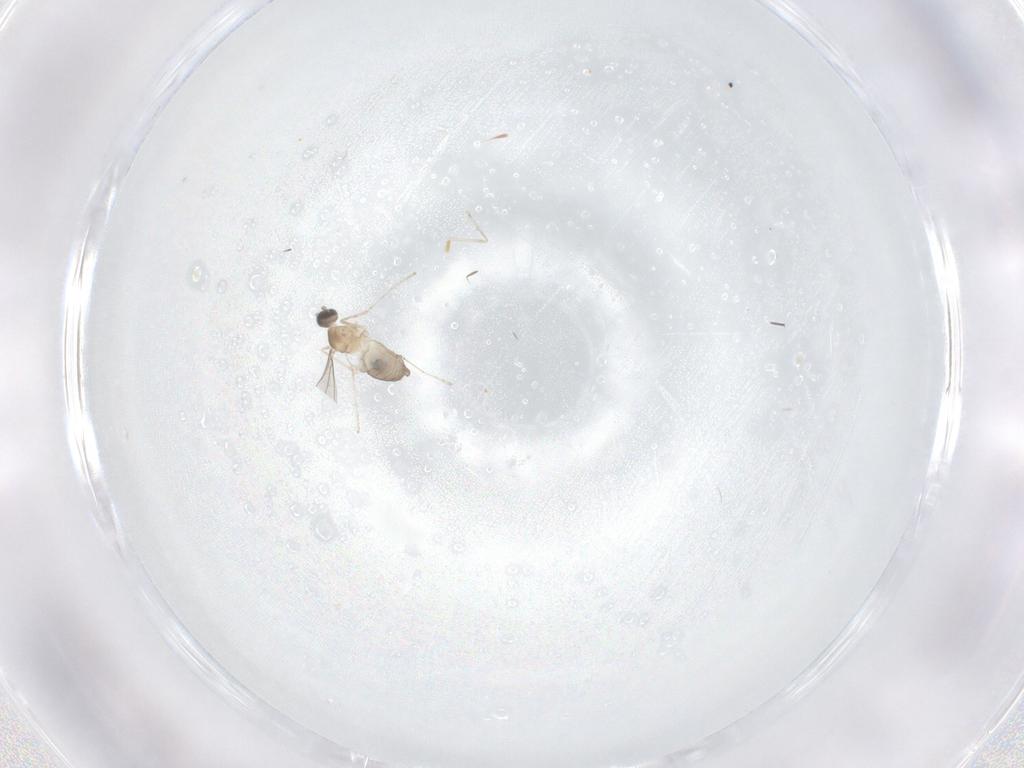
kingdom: Animalia
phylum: Arthropoda
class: Insecta
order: Diptera
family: Cecidomyiidae
